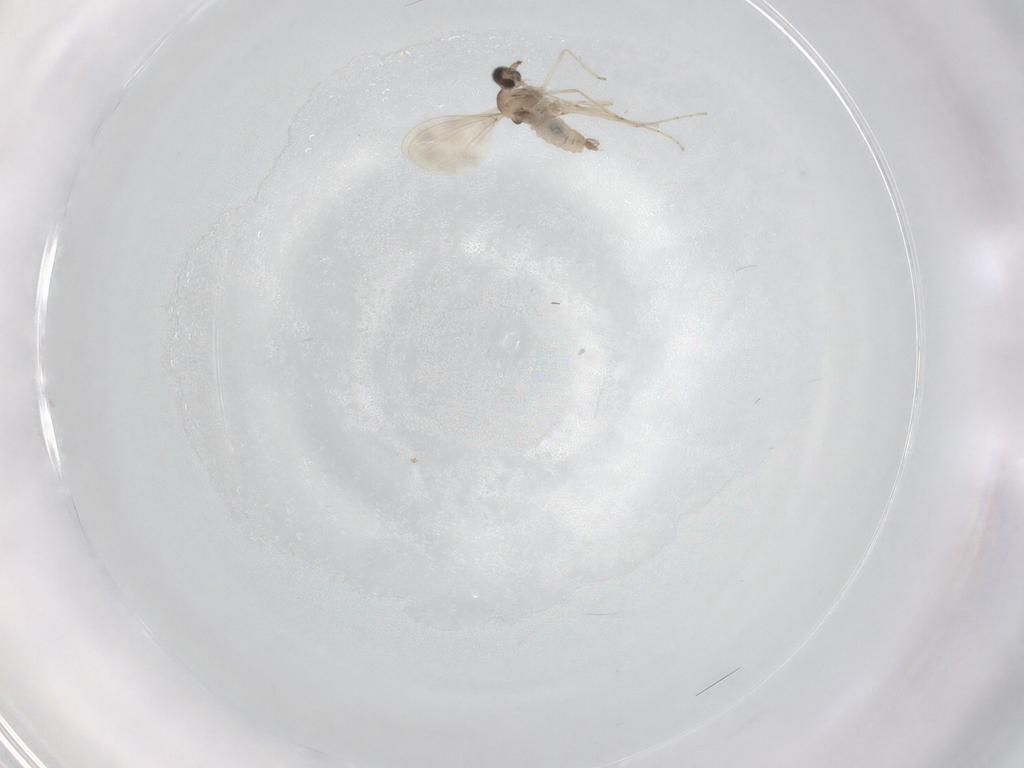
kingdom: Animalia
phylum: Arthropoda
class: Insecta
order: Diptera
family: Cecidomyiidae
